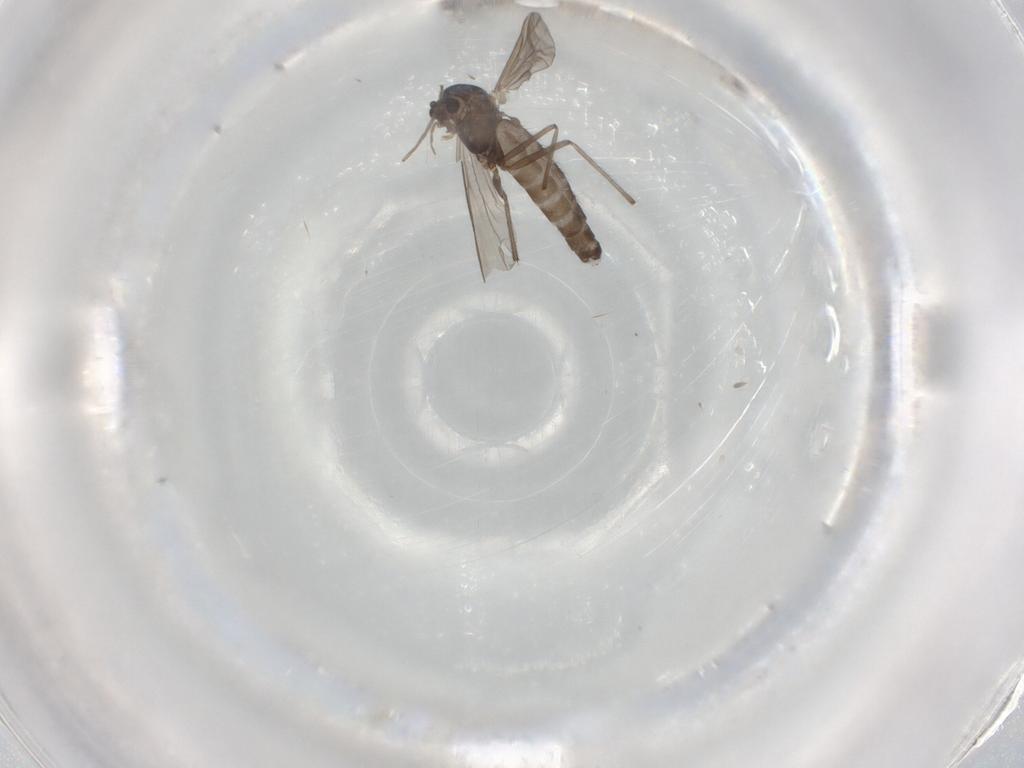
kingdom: Animalia
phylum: Arthropoda
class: Insecta
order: Diptera
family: Chironomidae
